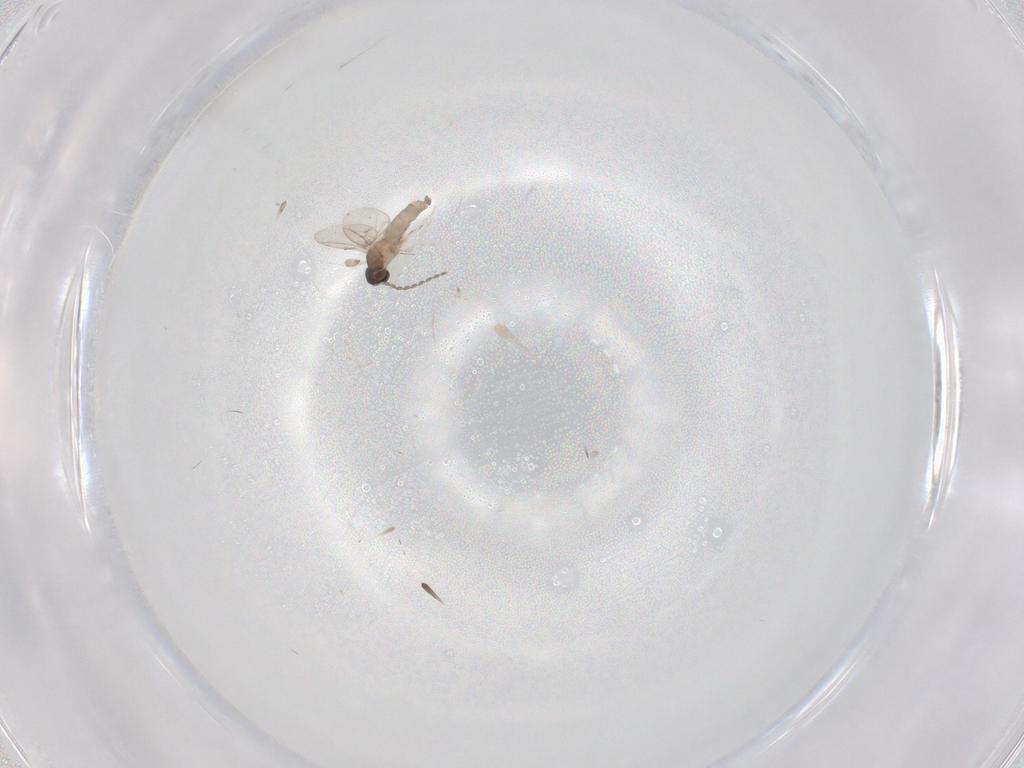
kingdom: Animalia
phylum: Arthropoda
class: Insecta
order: Diptera
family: Cecidomyiidae
